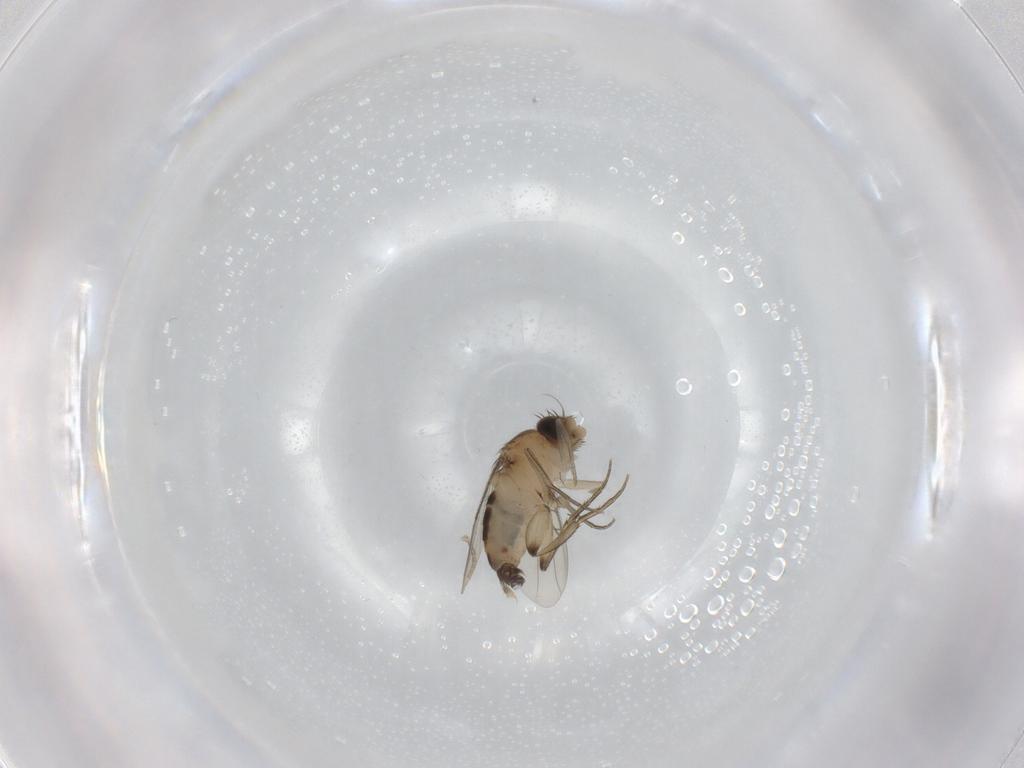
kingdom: Animalia
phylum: Arthropoda
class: Insecta
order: Diptera
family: Phoridae
